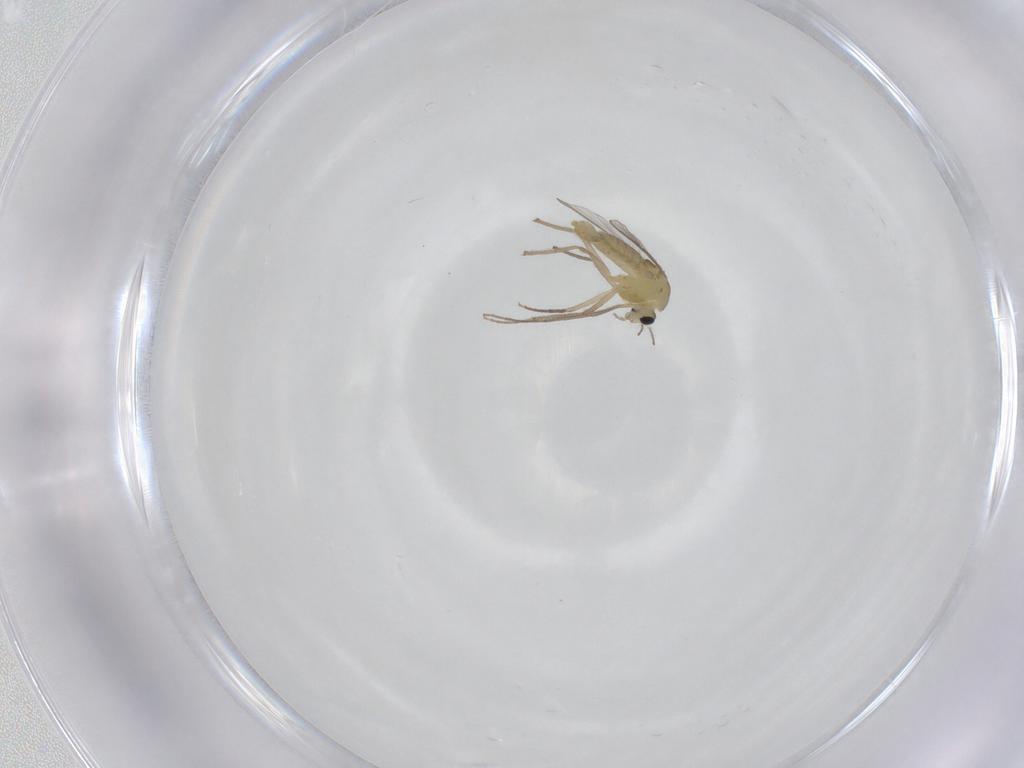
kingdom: Animalia
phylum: Arthropoda
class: Insecta
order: Diptera
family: Chironomidae
